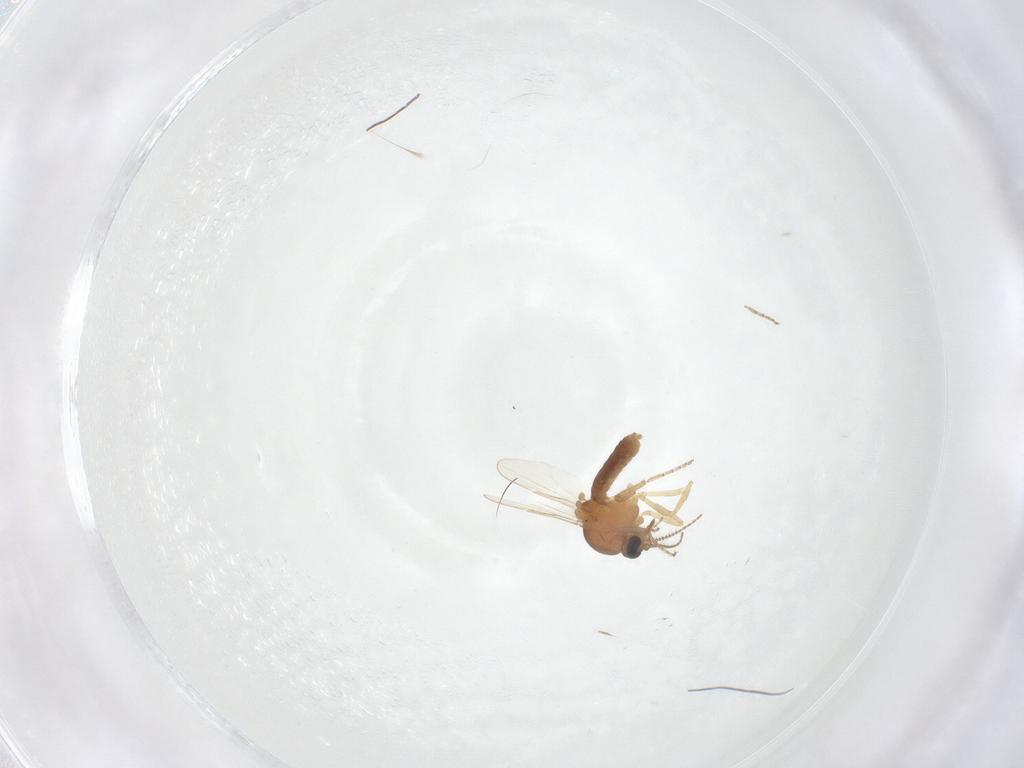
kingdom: Animalia
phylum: Arthropoda
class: Insecta
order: Diptera
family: Ceratopogonidae
